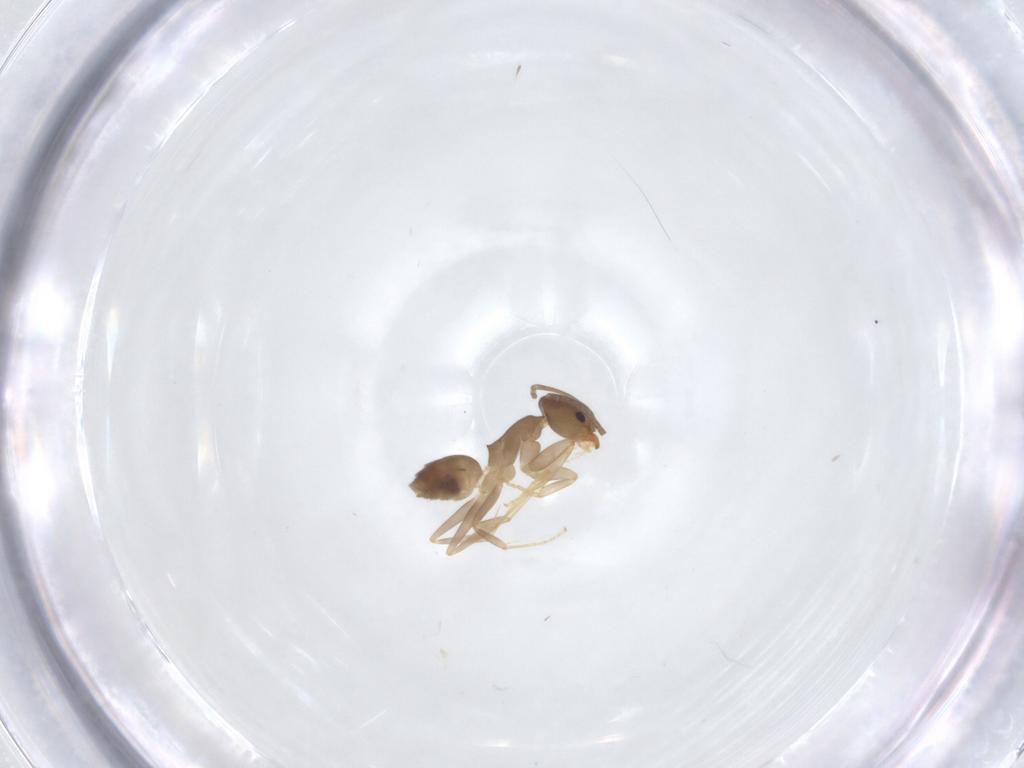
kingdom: Animalia
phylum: Arthropoda
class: Insecta
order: Hymenoptera
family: Formicidae
